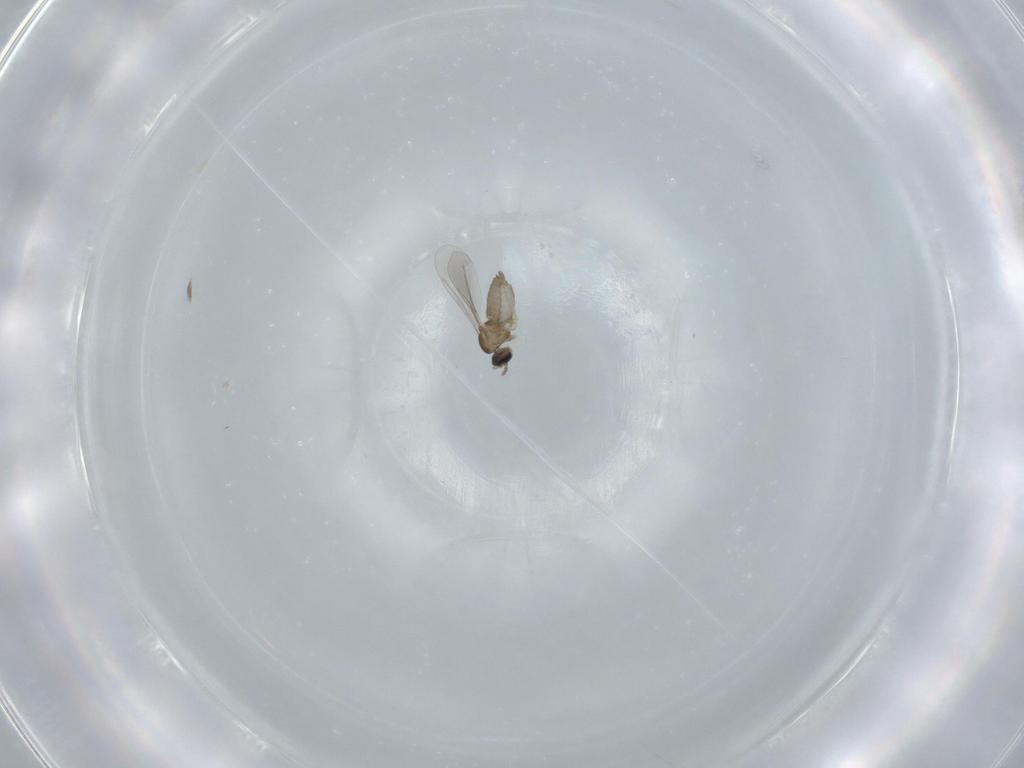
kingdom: Animalia
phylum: Arthropoda
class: Insecta
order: Diptera
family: Cecidomyiidae
